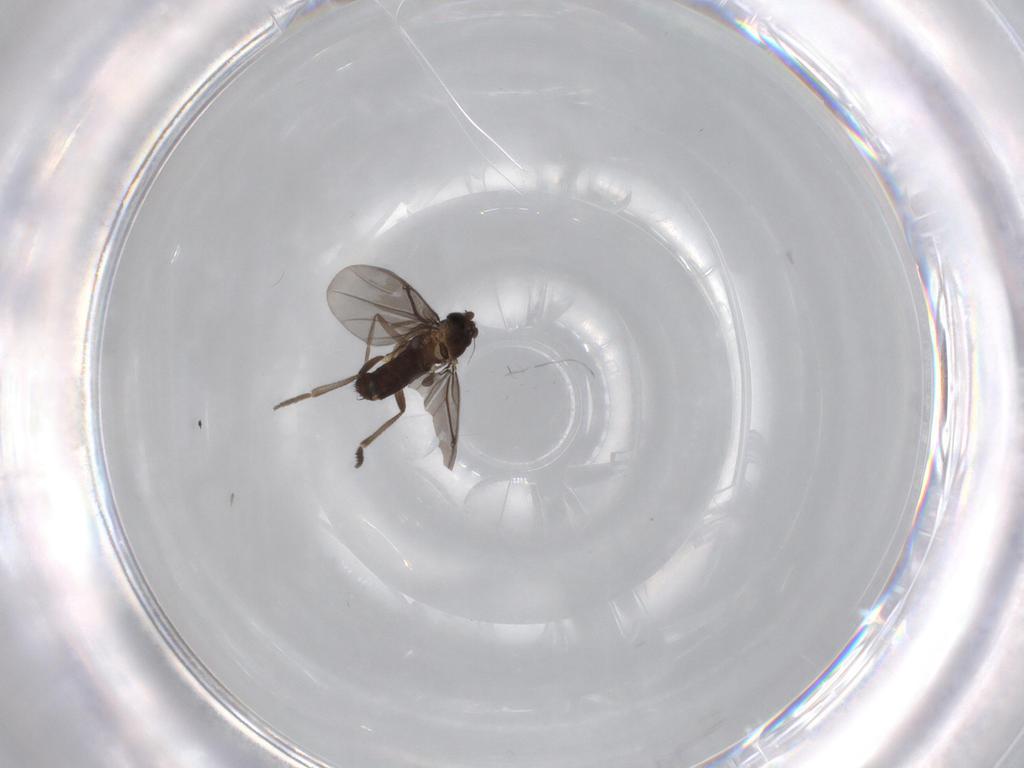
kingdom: Animalia
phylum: Arthropoda
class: Insecta
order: Diptera
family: Phoridae
